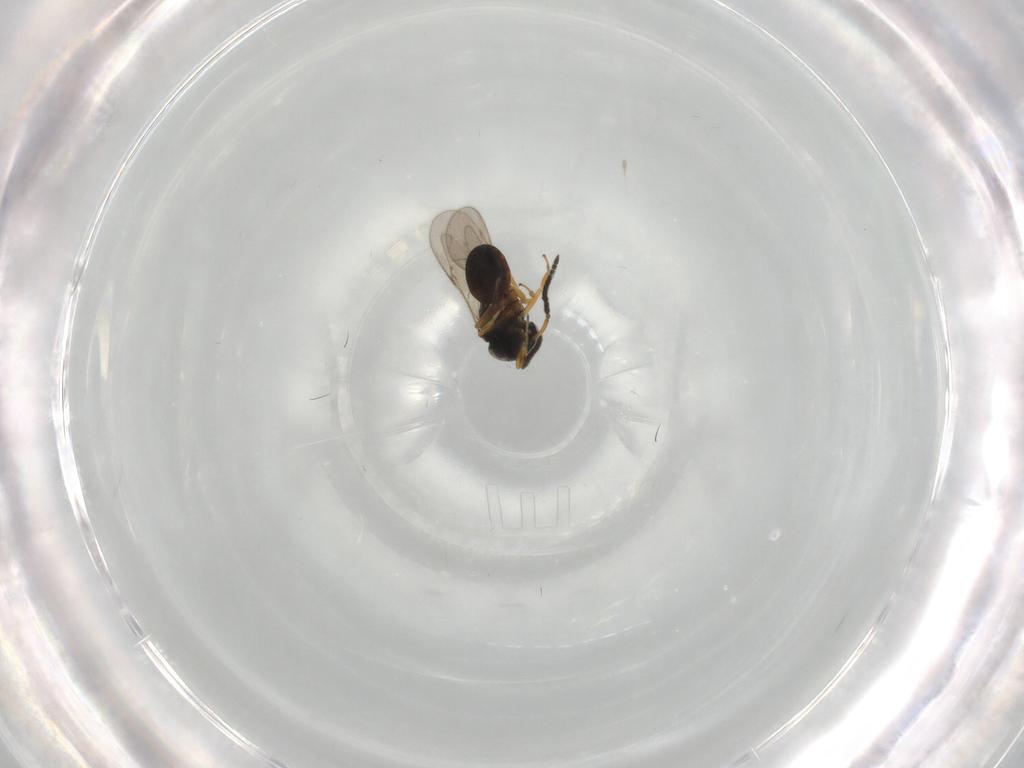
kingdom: Animalia
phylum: Arthropoda
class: Insecta
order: Hymenoptera
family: Scelionidae
